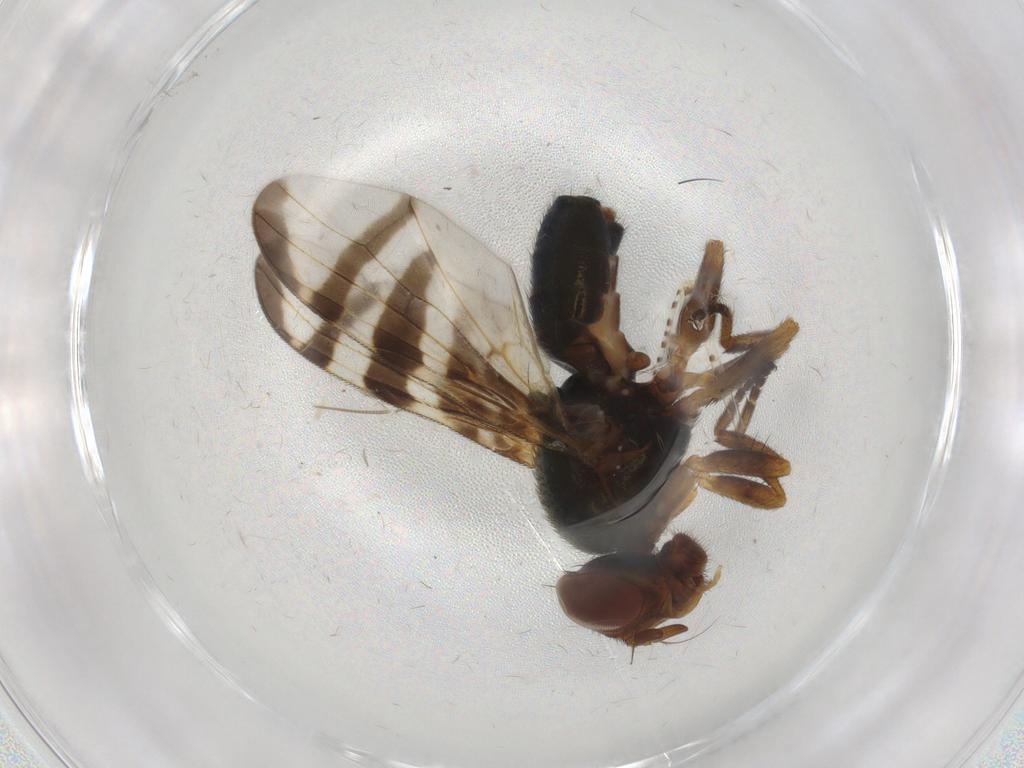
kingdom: Animalia
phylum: Arthropoda
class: Insecta
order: Diptera
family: Platystomatidae
